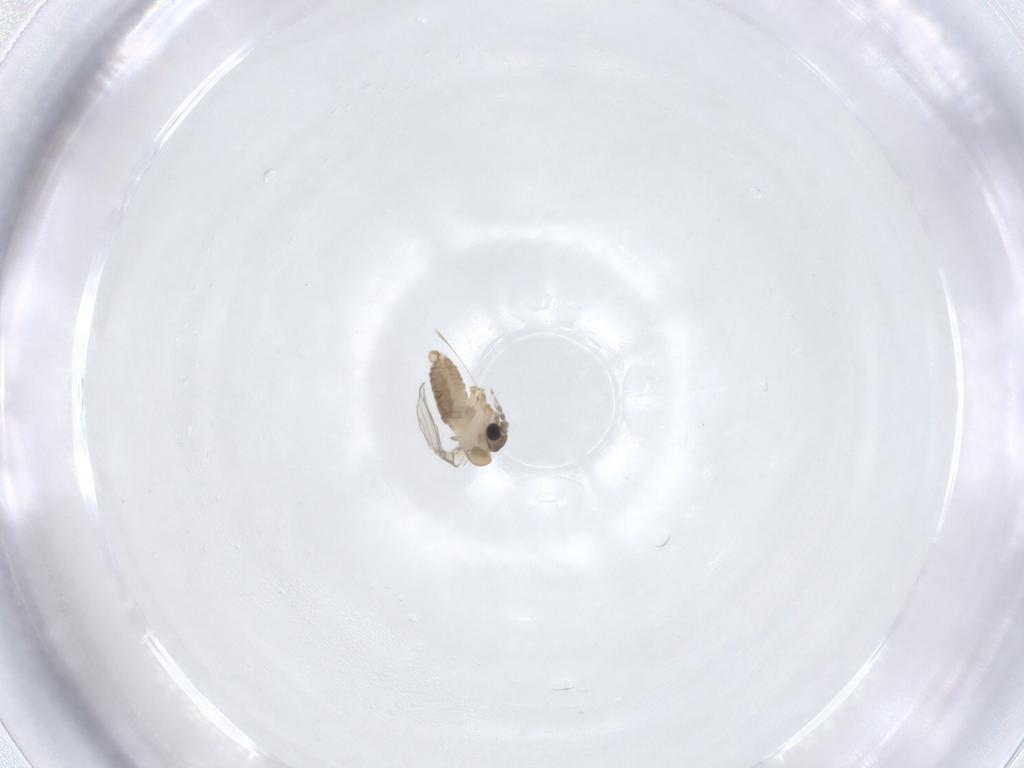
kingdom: Animalia
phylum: Arthropoda
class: Insecta
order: Diptera
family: Psychodidae
